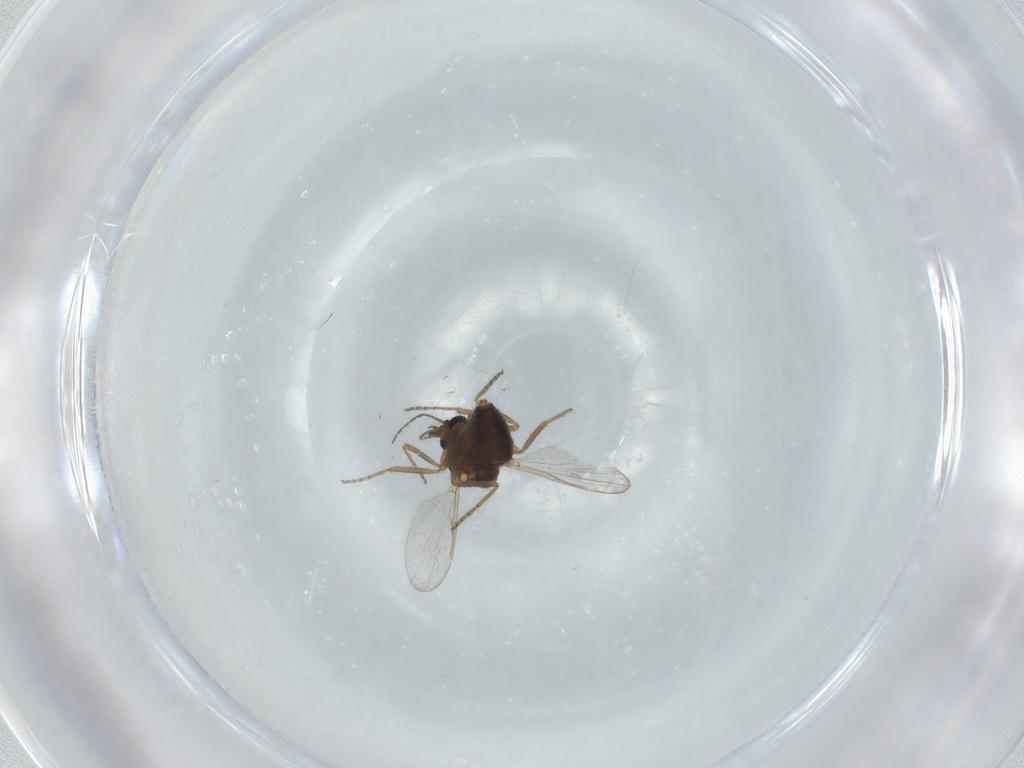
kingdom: Animalia
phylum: Arthropoda
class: Insecta
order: Diptera
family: Ceratopogonidae
